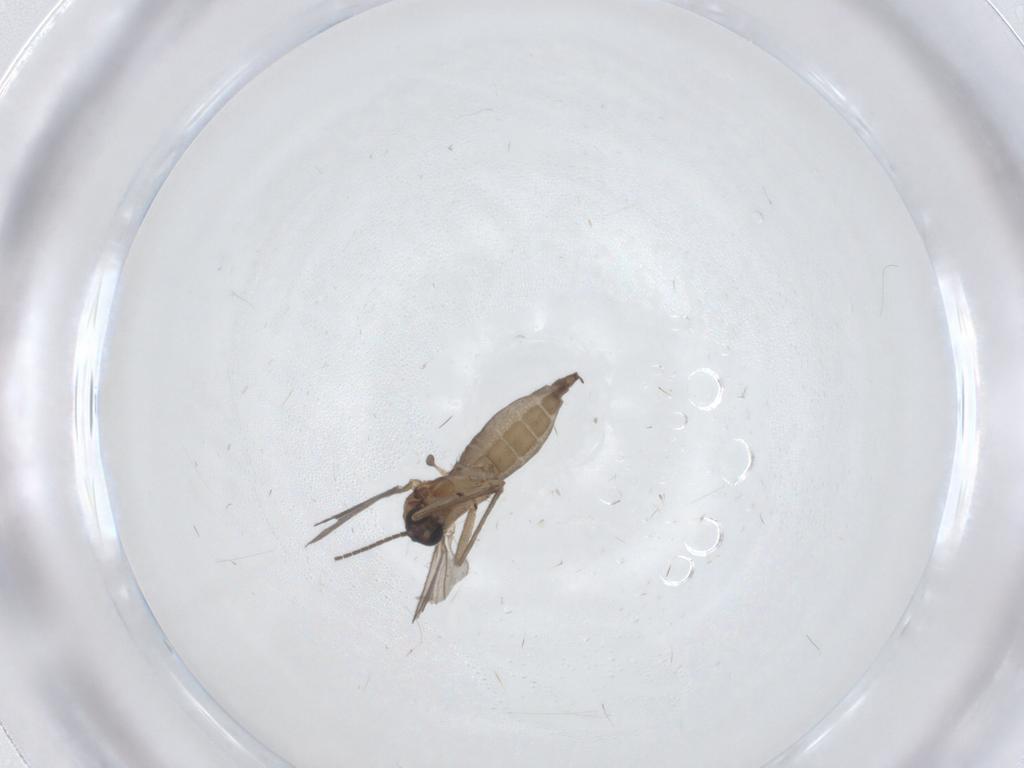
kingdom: Animalia
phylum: Arthropoda
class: Insecta
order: Diptera
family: Sciaridae
